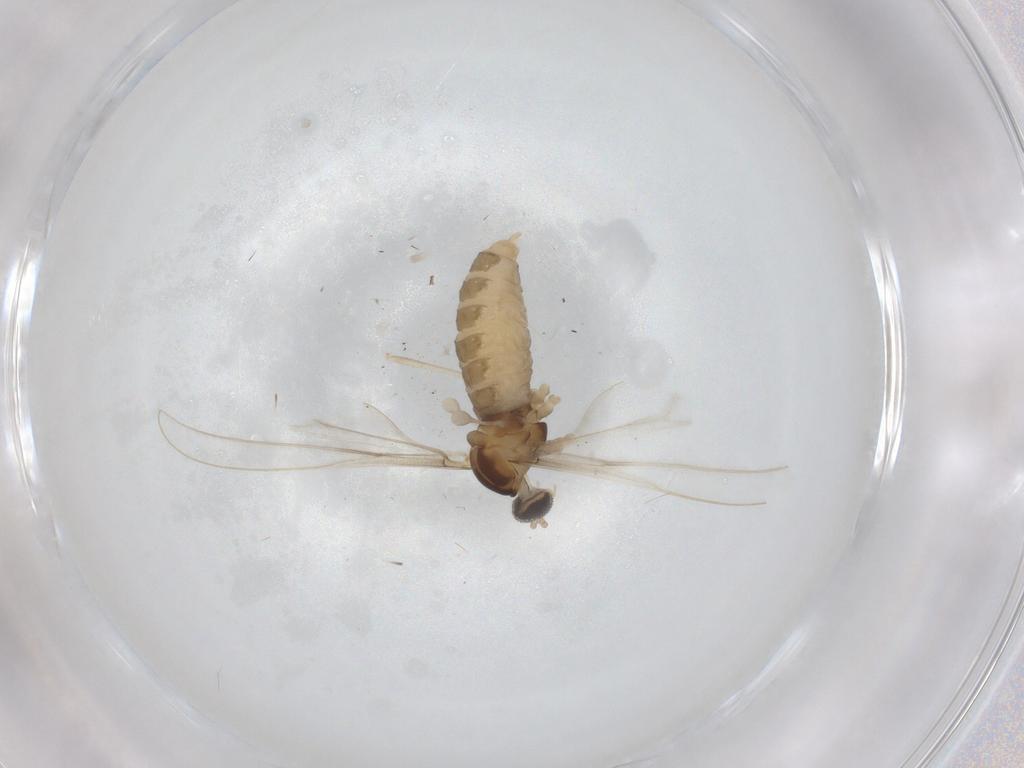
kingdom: Animalia
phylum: Arthropoda
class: Insecta
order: Diptera
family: Cecidomyiidae
